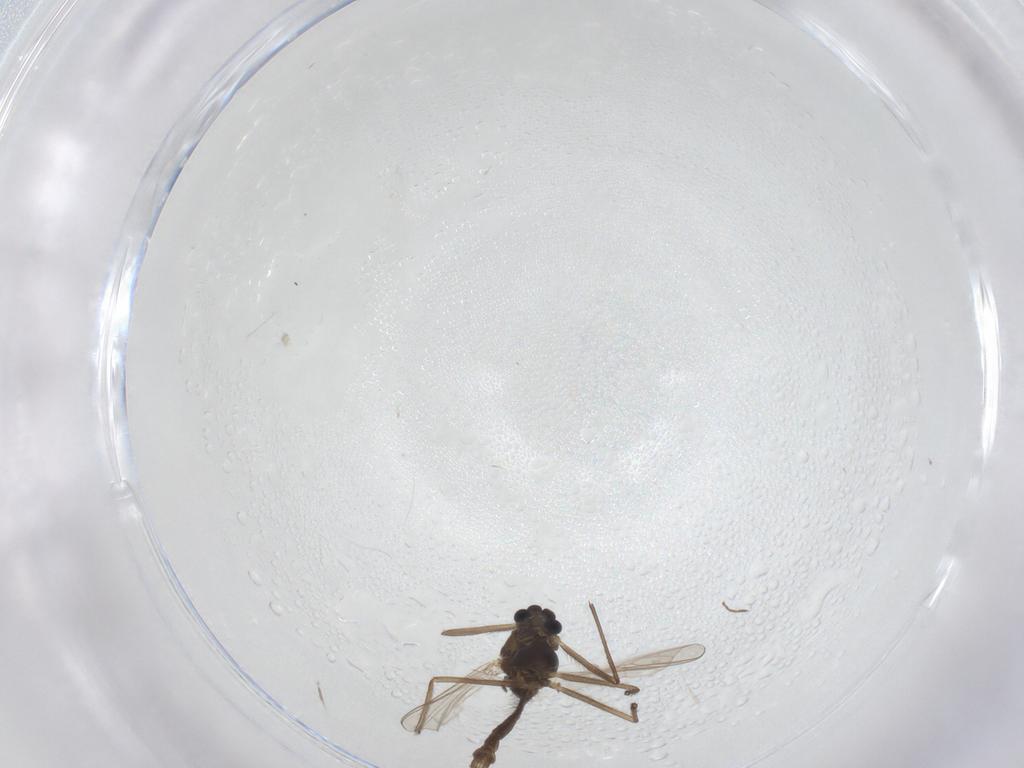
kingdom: Animalia
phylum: Arthropoda
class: Insecta
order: Diptera
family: Chironomidae
